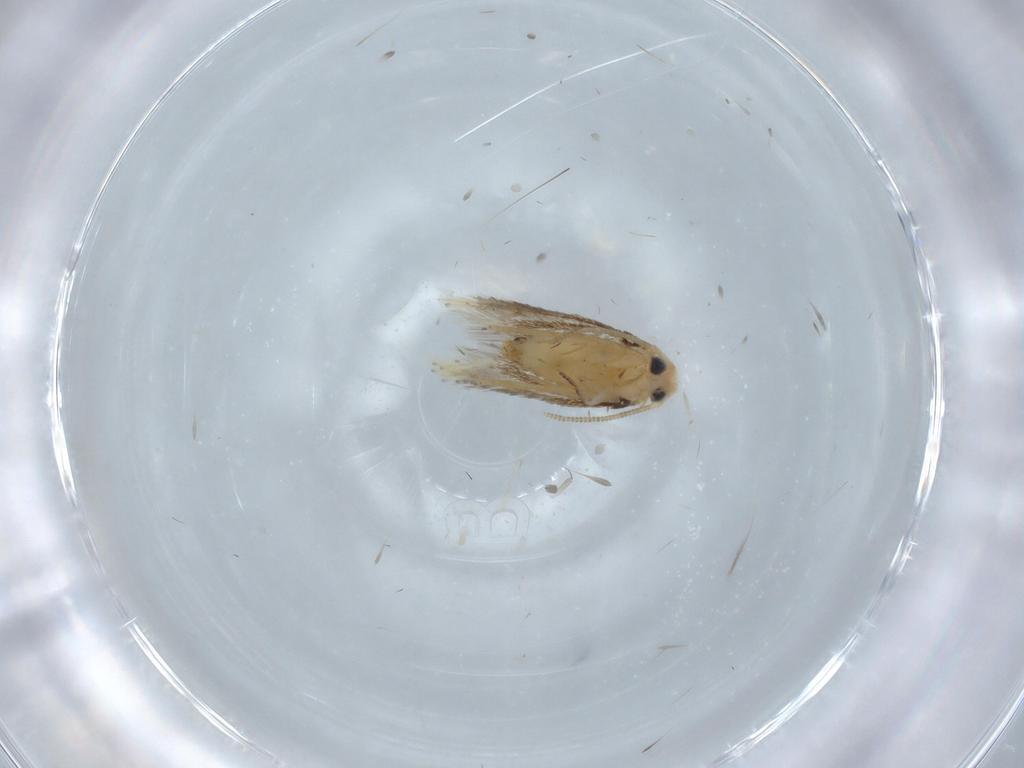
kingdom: Animalia
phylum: Arthropoda
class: Insecta
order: Lepidoptera
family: Nepticulidae
